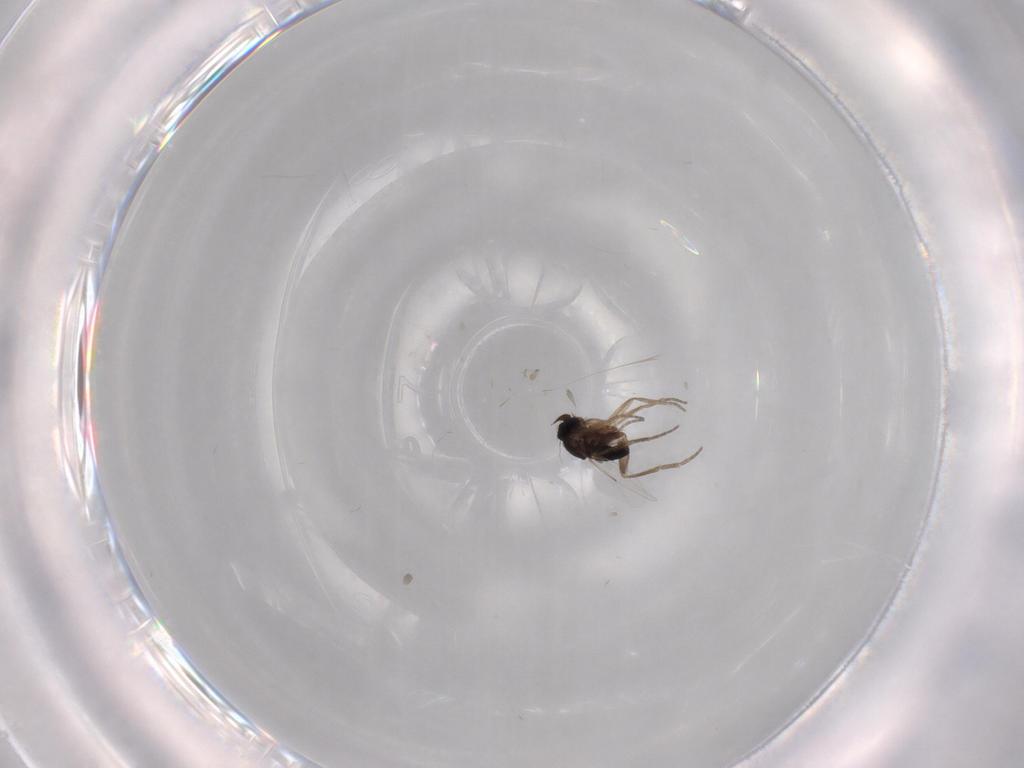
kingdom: Animalia
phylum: Arthropoda
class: Insecta
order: Diptera
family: Phoridae
